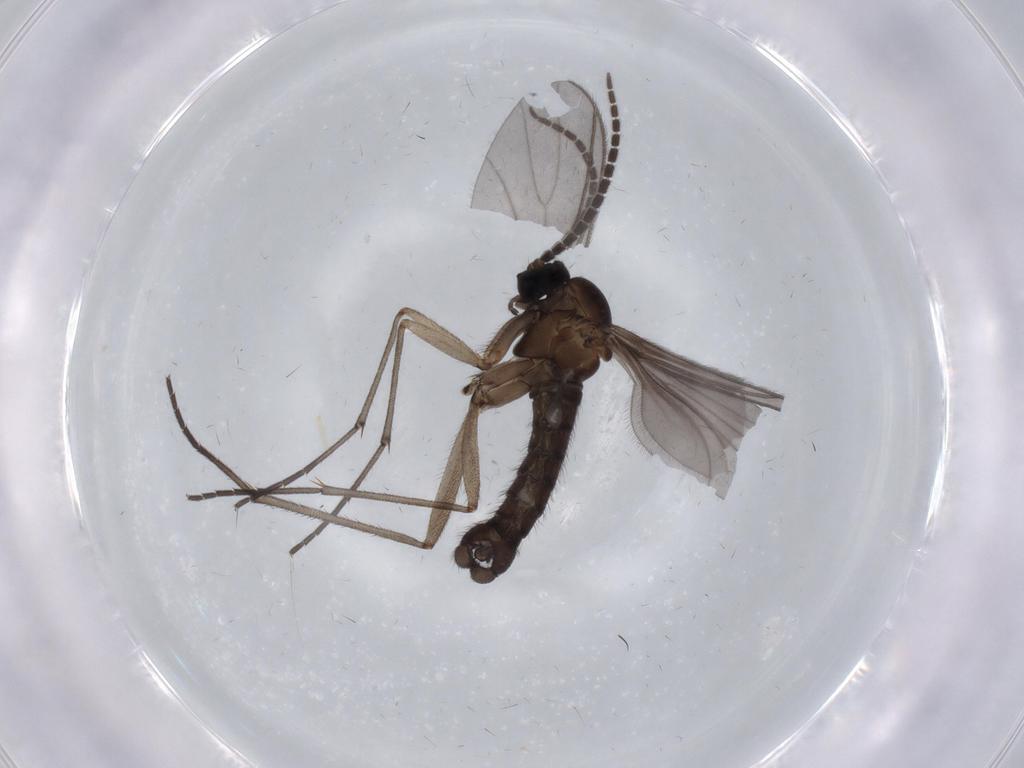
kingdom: Animalia
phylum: Arthropoda
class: Insecta
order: Diptera
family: Sciaridae
